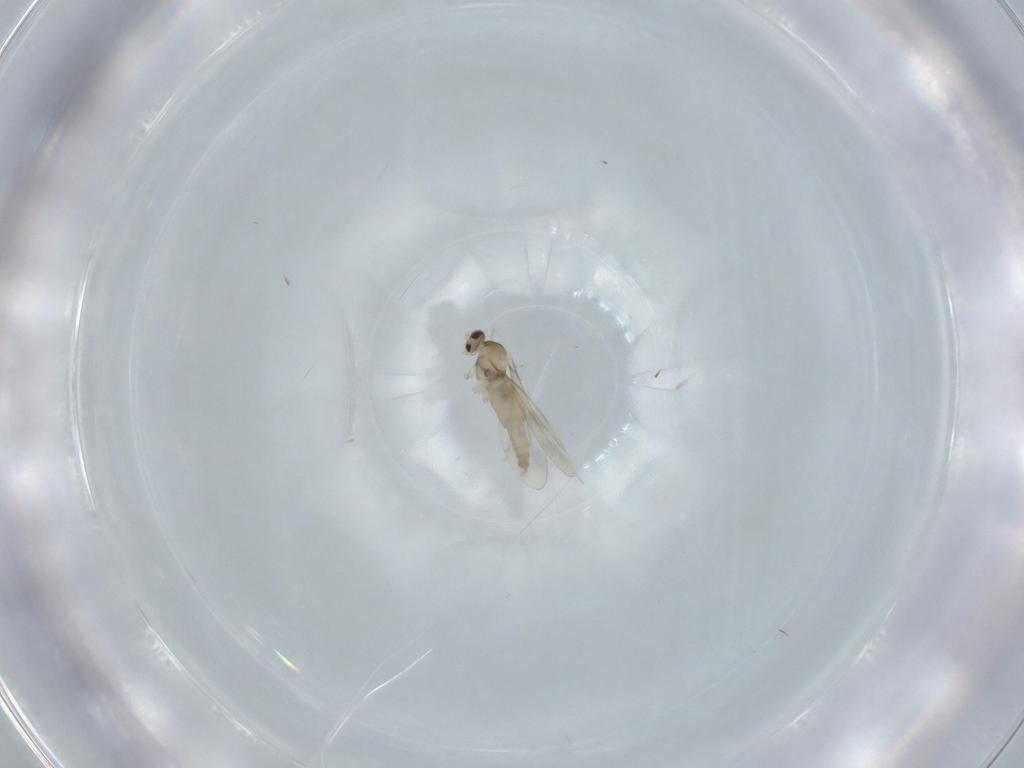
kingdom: Animalia
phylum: Arthropoda
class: Insecta
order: Diptera
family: Cecidomyiidae
